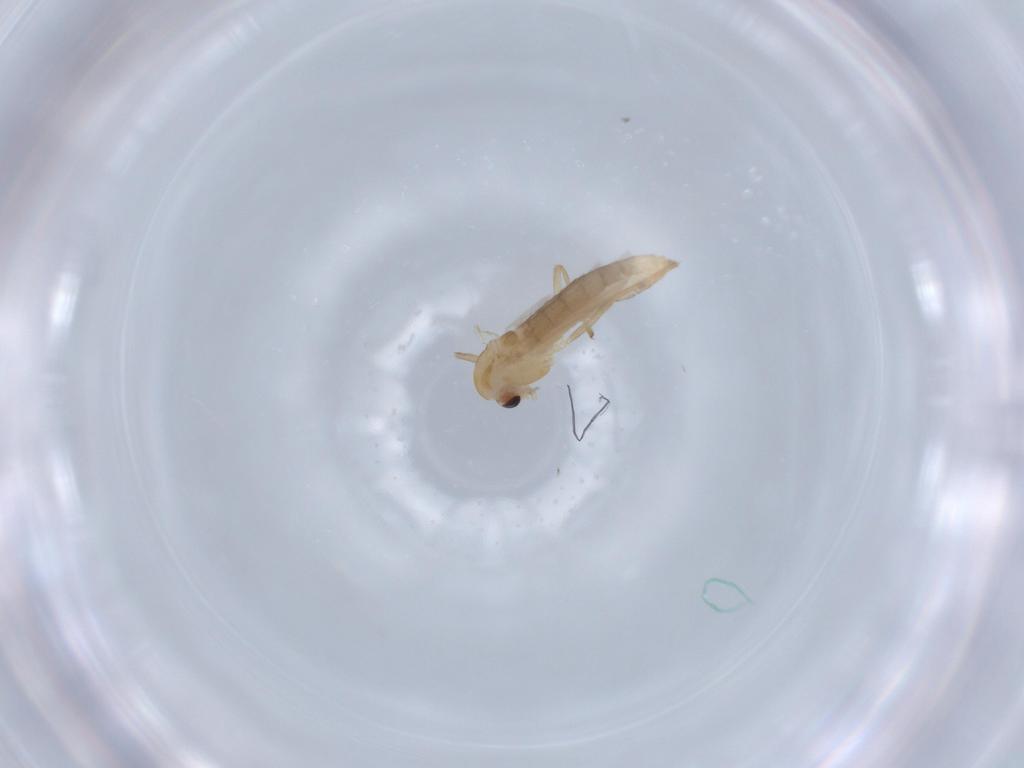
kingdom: Animalia
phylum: Arthropoda
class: Insecta
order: Diptera
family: Chironomidae
